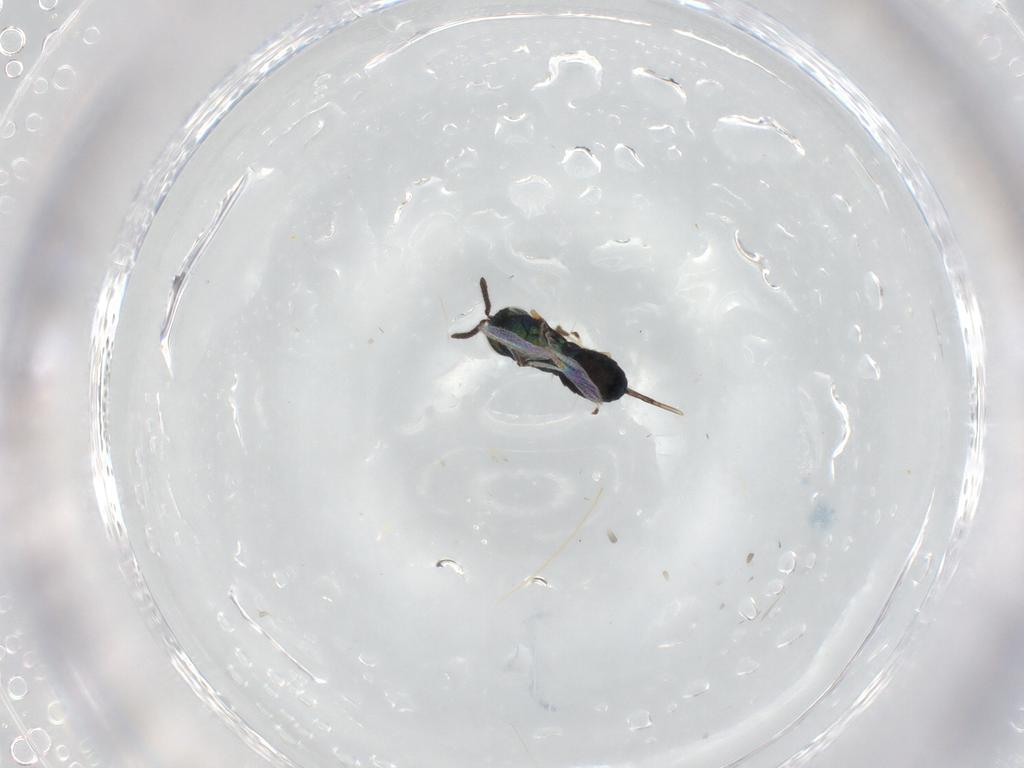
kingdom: Animalia
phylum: Arthropoda
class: Insecta
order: Hymenoptera
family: Pteromalidae
